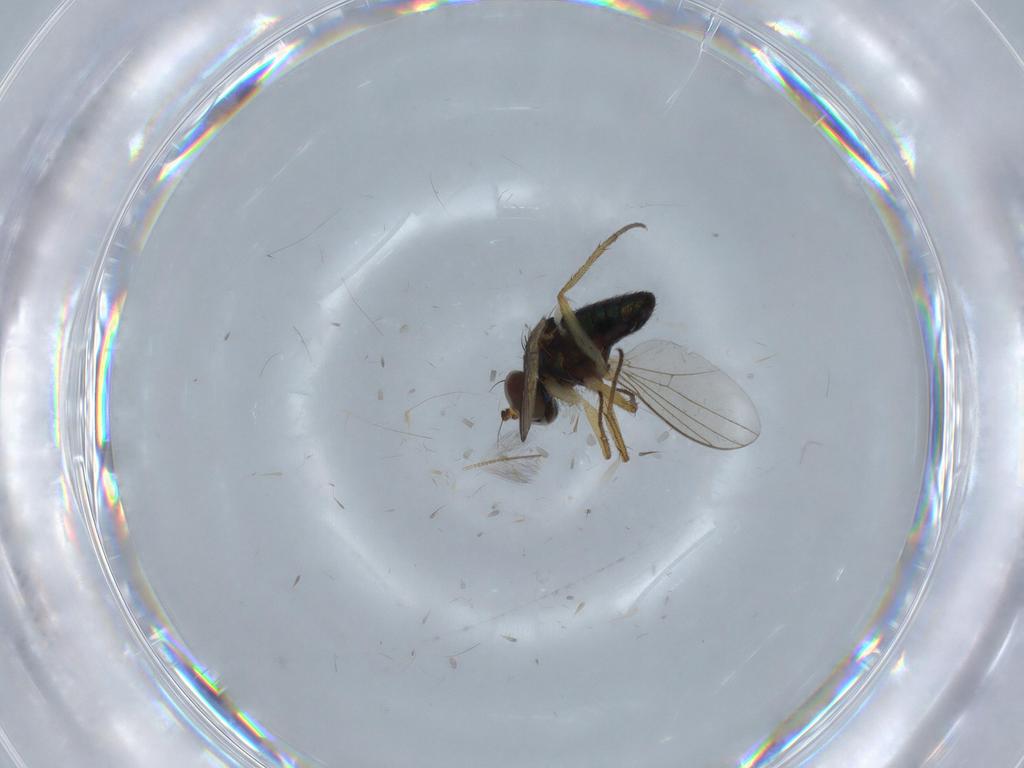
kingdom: Animalia
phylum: Arthropoda
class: Insecta
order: Diptera
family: Chironomidae
